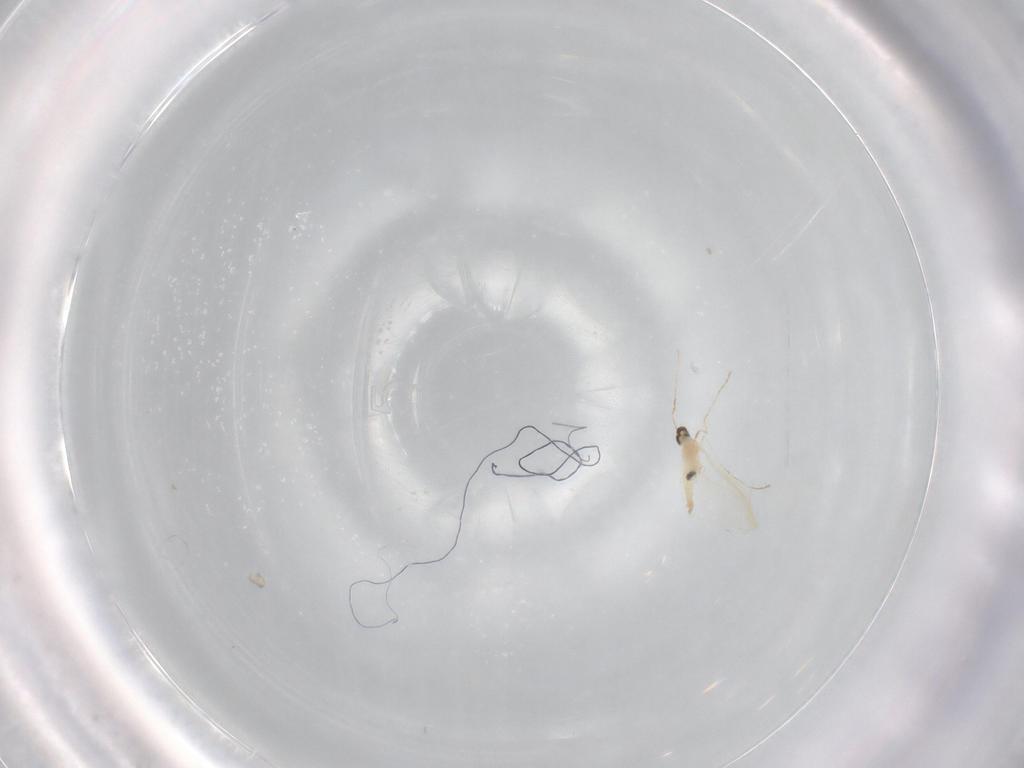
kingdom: Animalia
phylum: Arthropoda
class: Insecta
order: Diptera
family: Cecidomyiidae
